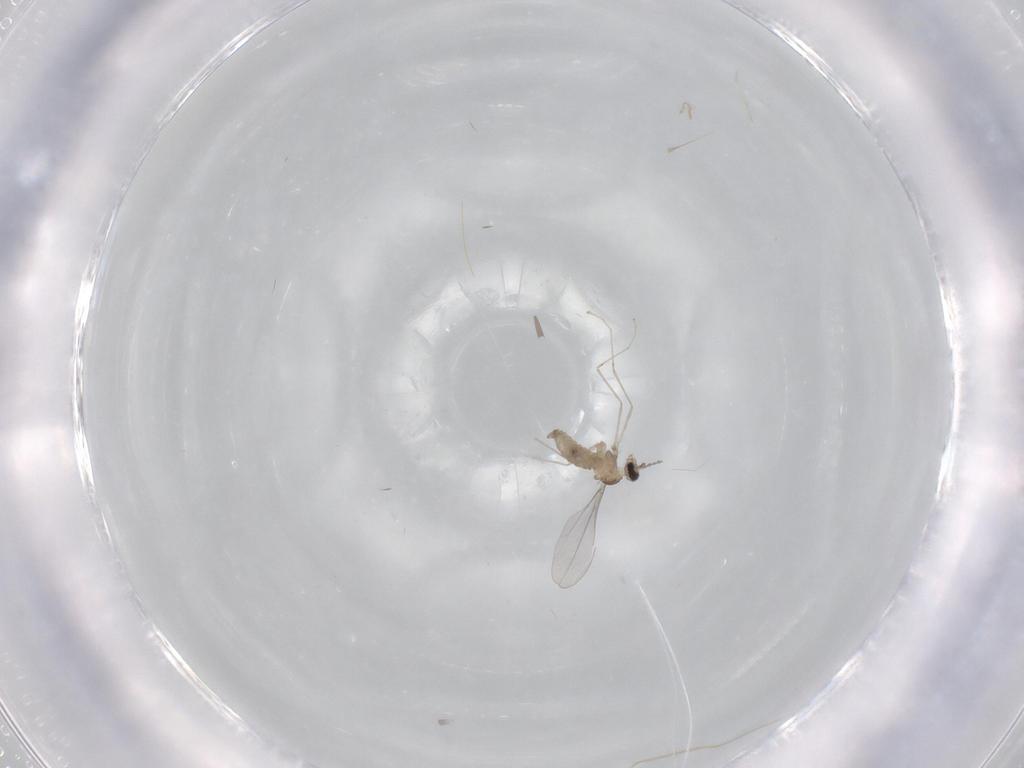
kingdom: Animalia
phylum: Arthropoda
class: Insecta
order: Diptera
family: Cecidomyiidae
